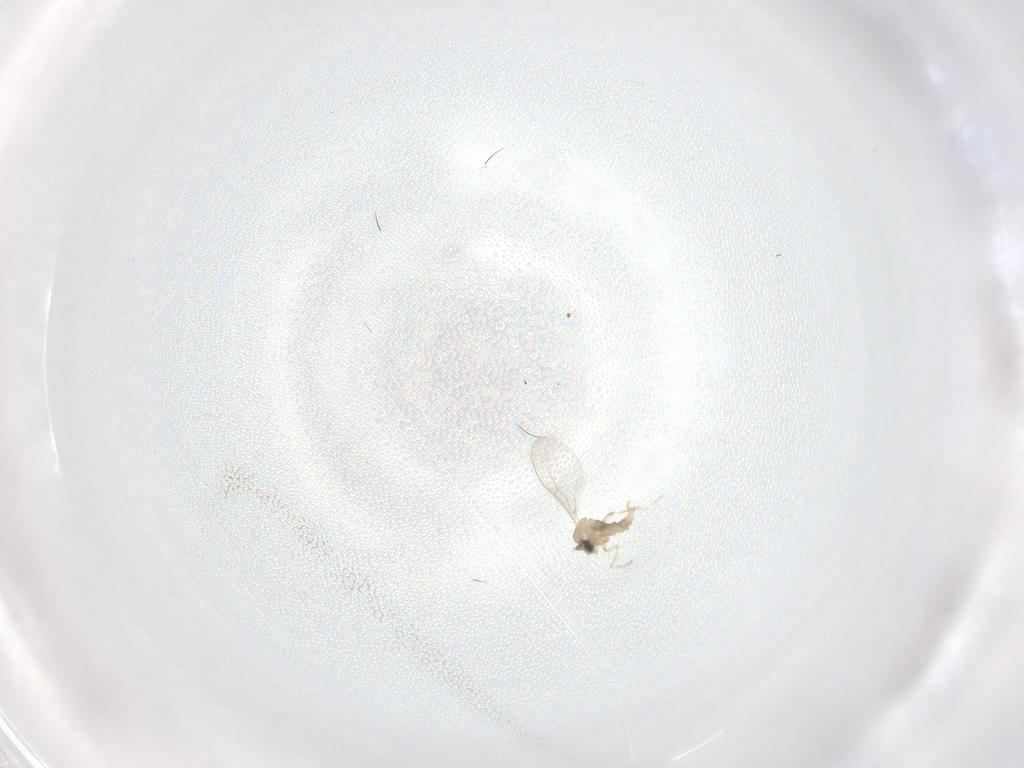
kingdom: Animalia
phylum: Arthropoda
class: Insecta
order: Diptera
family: Cecidomyiidae
